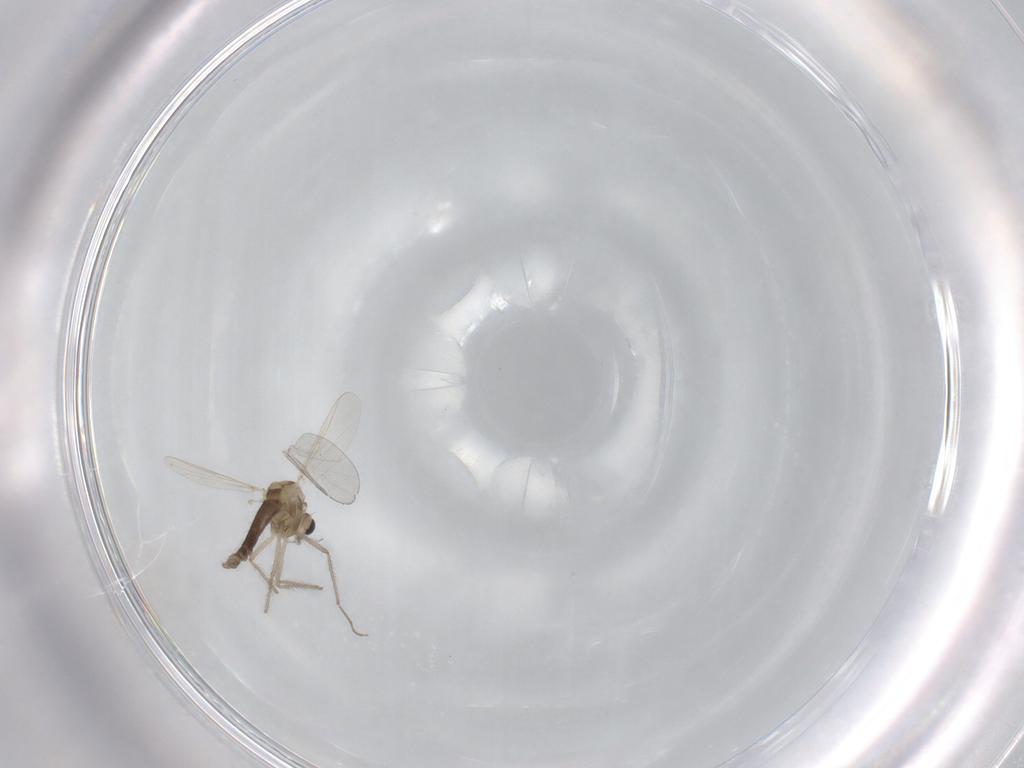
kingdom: Animalia
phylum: Arthropoda
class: Insecta
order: Diptera
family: Chironomidae
